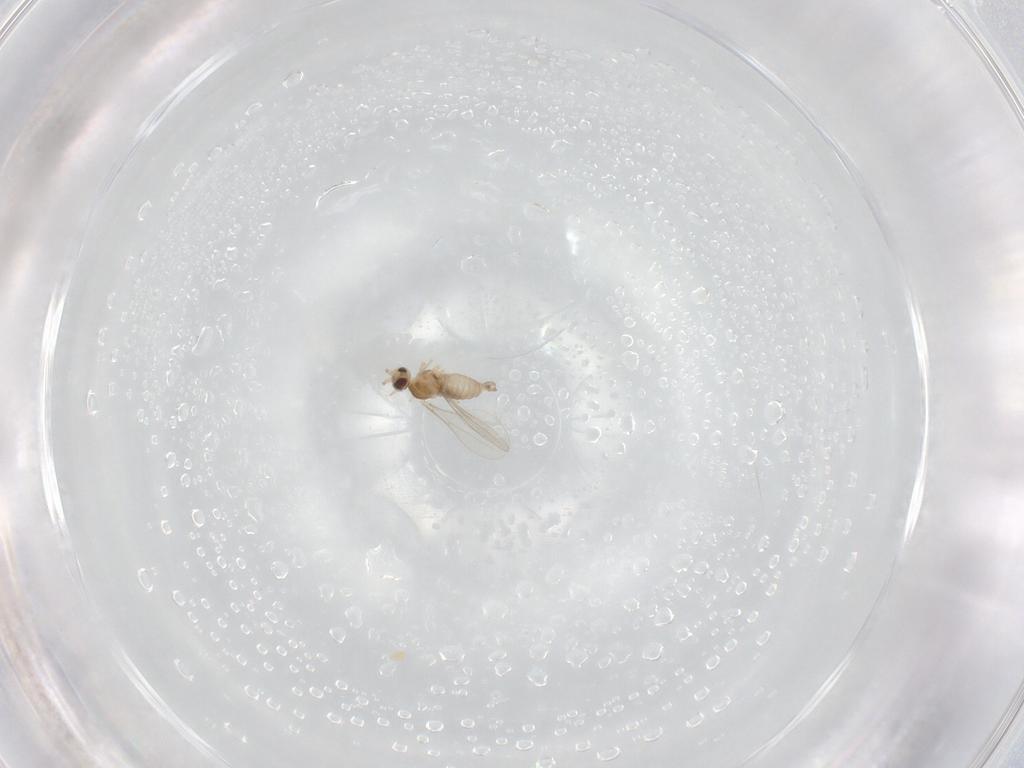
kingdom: Animalia
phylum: Arthropoda
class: Insecta
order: Diptera
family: Cecidomyiidae
